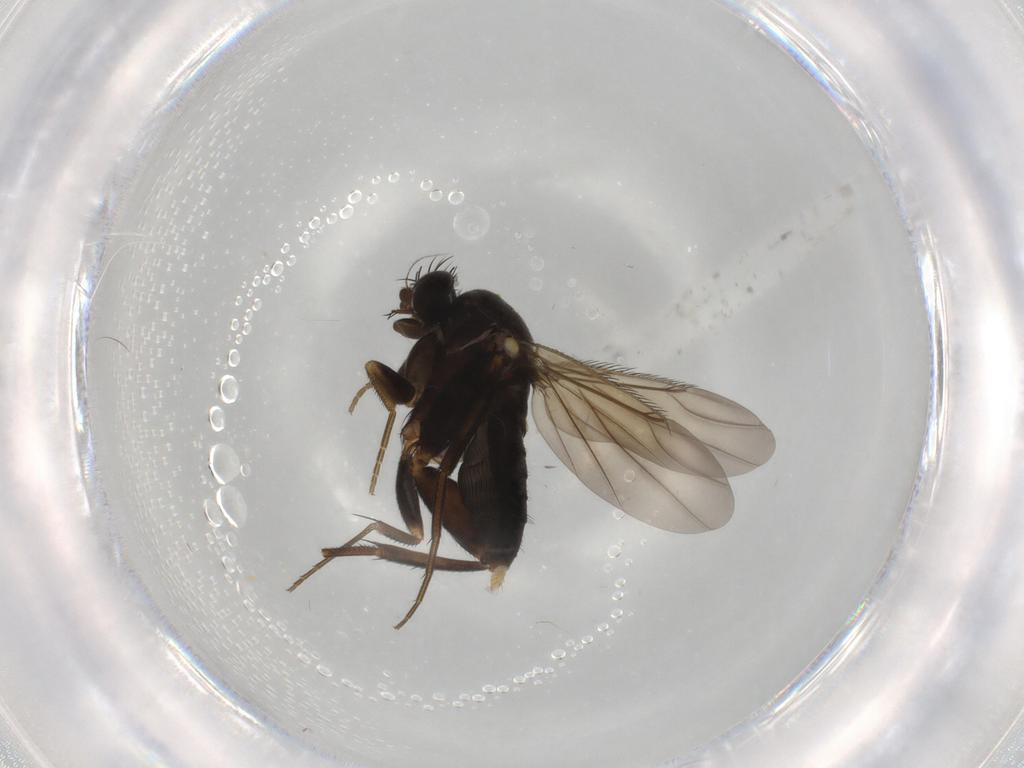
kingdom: Animalia
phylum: Arthropoda
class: Insecta
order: Diptera
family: Phoridae
